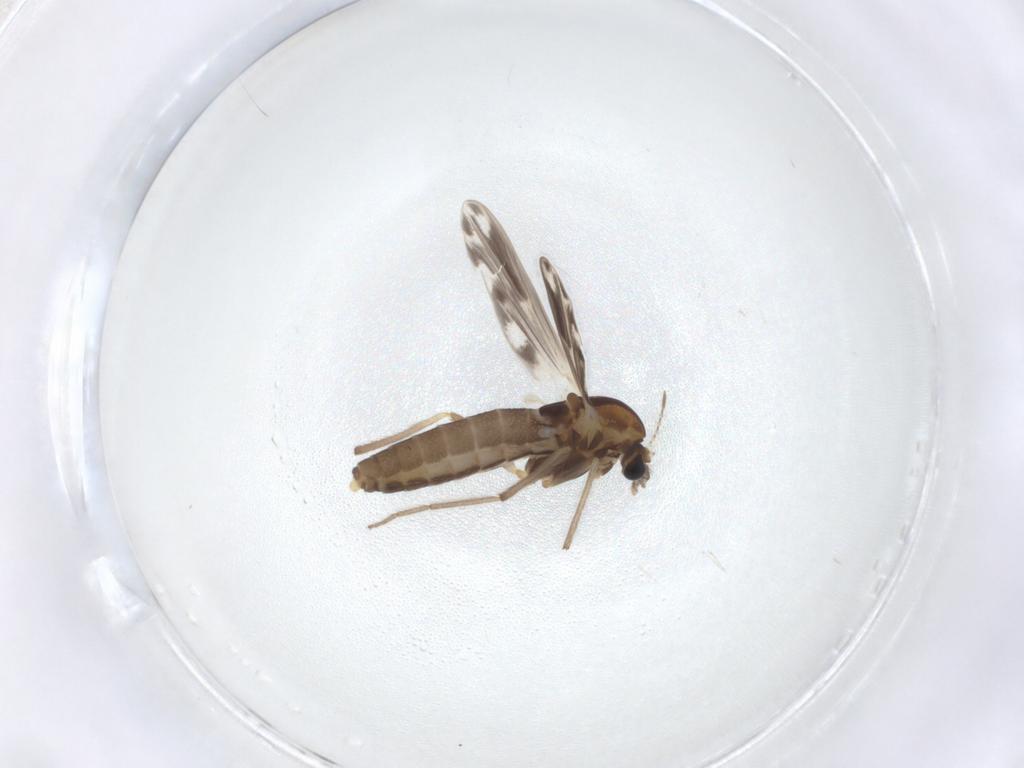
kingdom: Animalia
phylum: Arthropoda
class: Insecta
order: Diptera
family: Chironomidae
